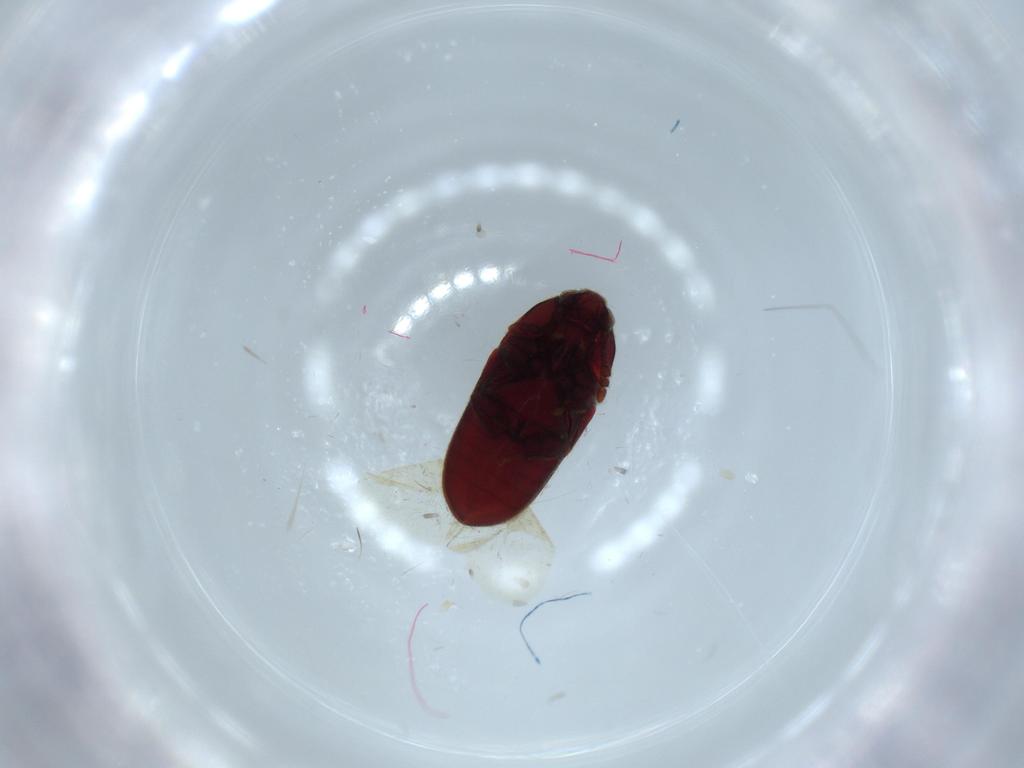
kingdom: Animalia
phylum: Arthropoda
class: Insecta
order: Coleoptera
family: Throscidae
